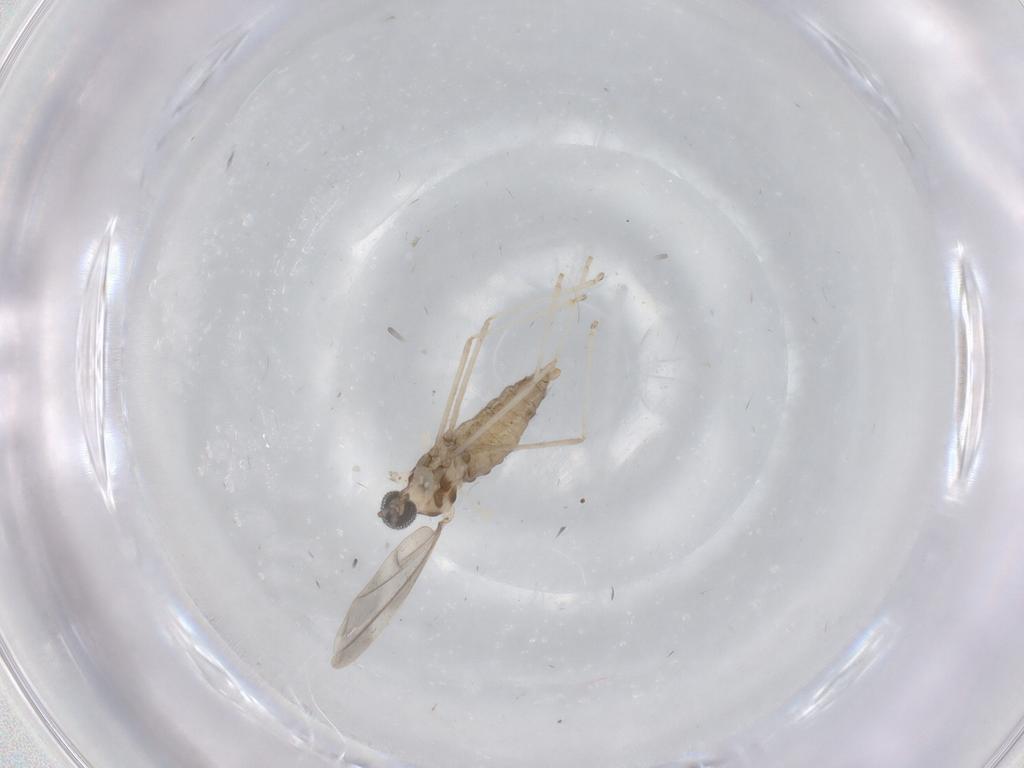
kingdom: Animalia
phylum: Arthropoda
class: Insecta
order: Diptera
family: Cecidomyiidae
